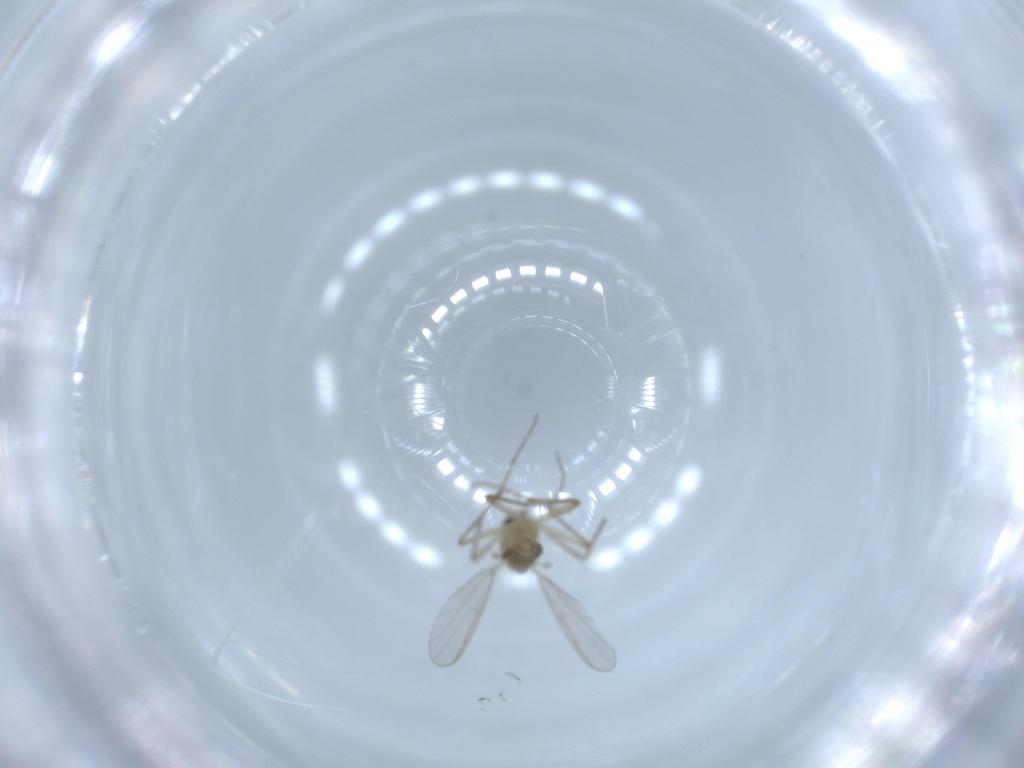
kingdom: Animalia
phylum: Arthropoda
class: Insecta
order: Diptera
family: Chironomidae
